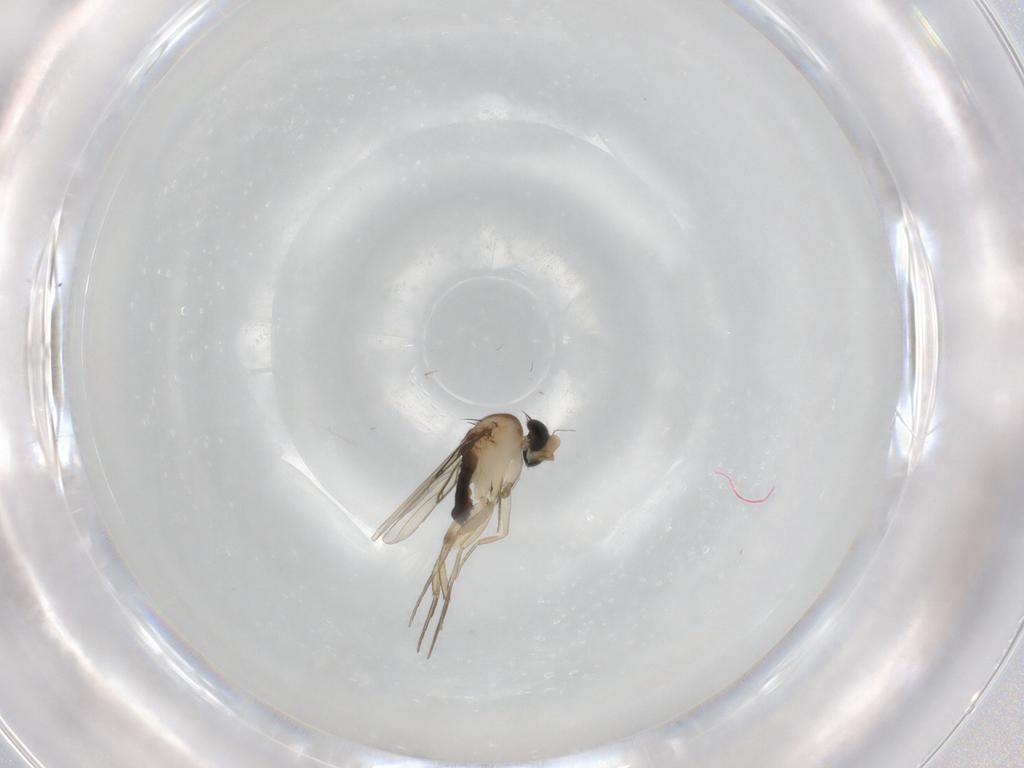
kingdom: Animalia
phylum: Arthropoda
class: Insecta
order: Diptera
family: Phoridae
